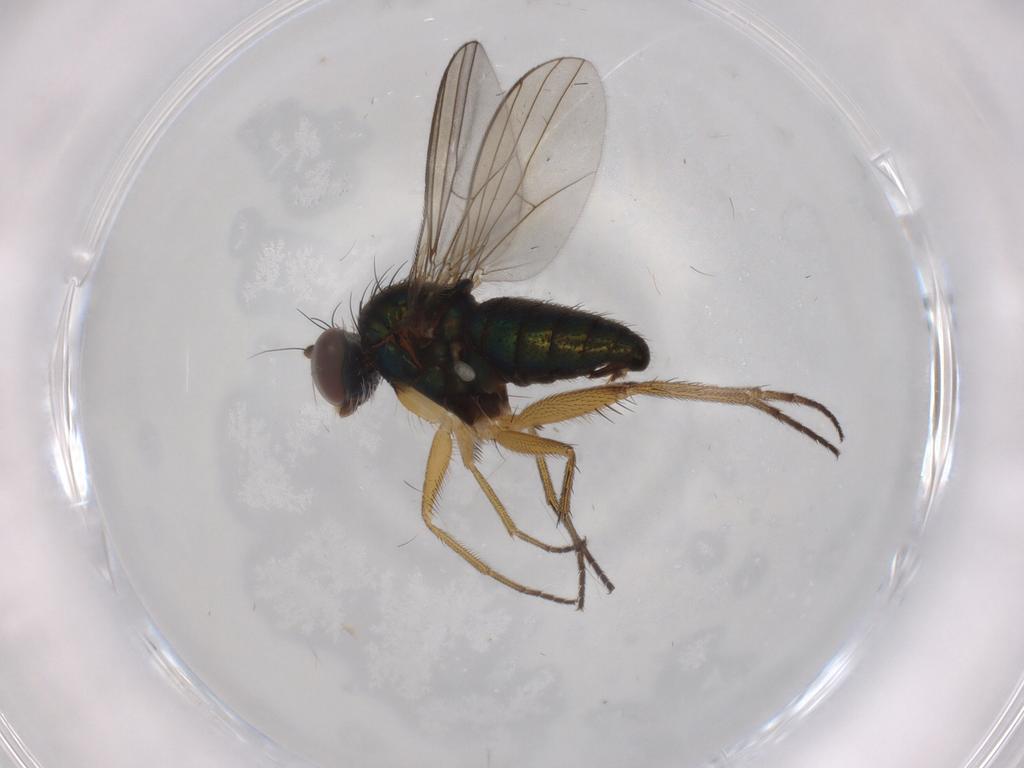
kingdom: Animalia
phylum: Arthropoda
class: Insecta
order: Diptera
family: Dolichopodidae
